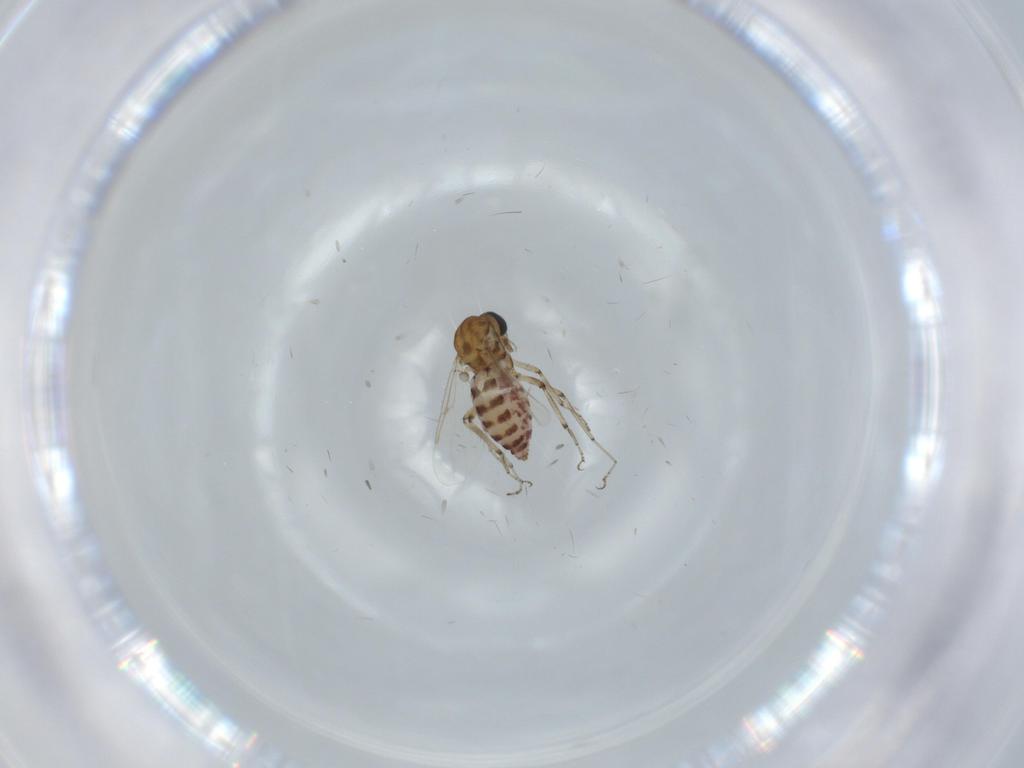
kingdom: Animalia
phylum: Arthropoda
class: Insecta
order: Diptera
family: Ceratopogonidae
